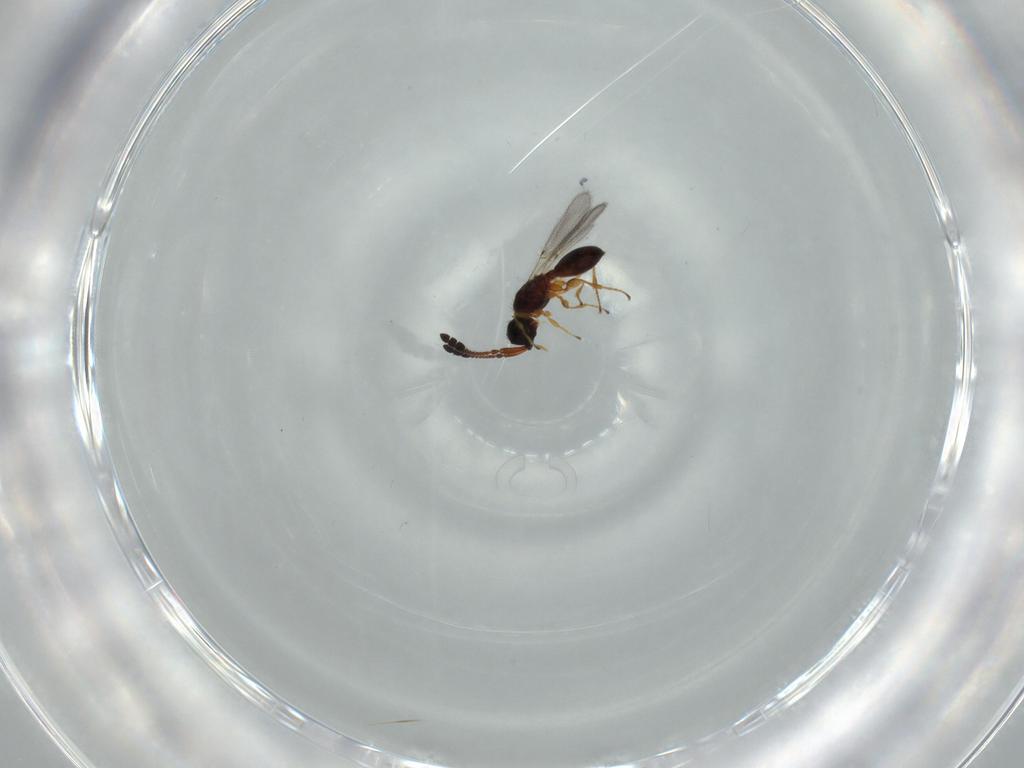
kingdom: Animalia
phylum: Arthropoda
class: Insecta
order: Hymenoptera
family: Diapriidae
